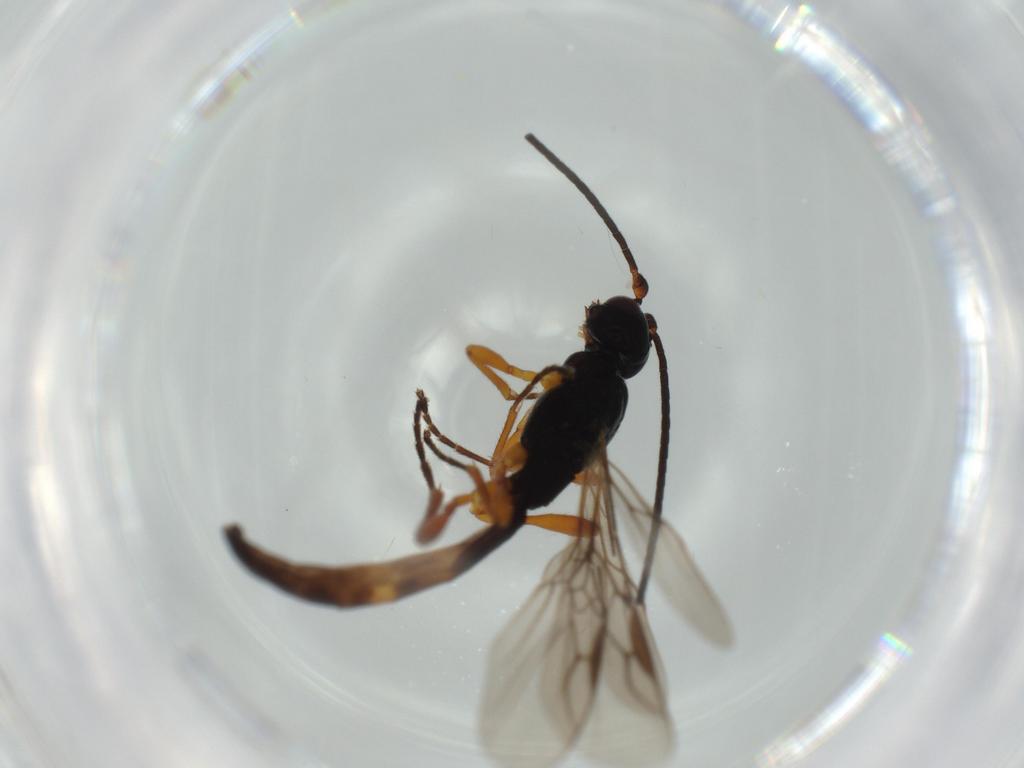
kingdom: Animalia
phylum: Arthropoda
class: Insecta
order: Hymenoptera
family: Braconidae
